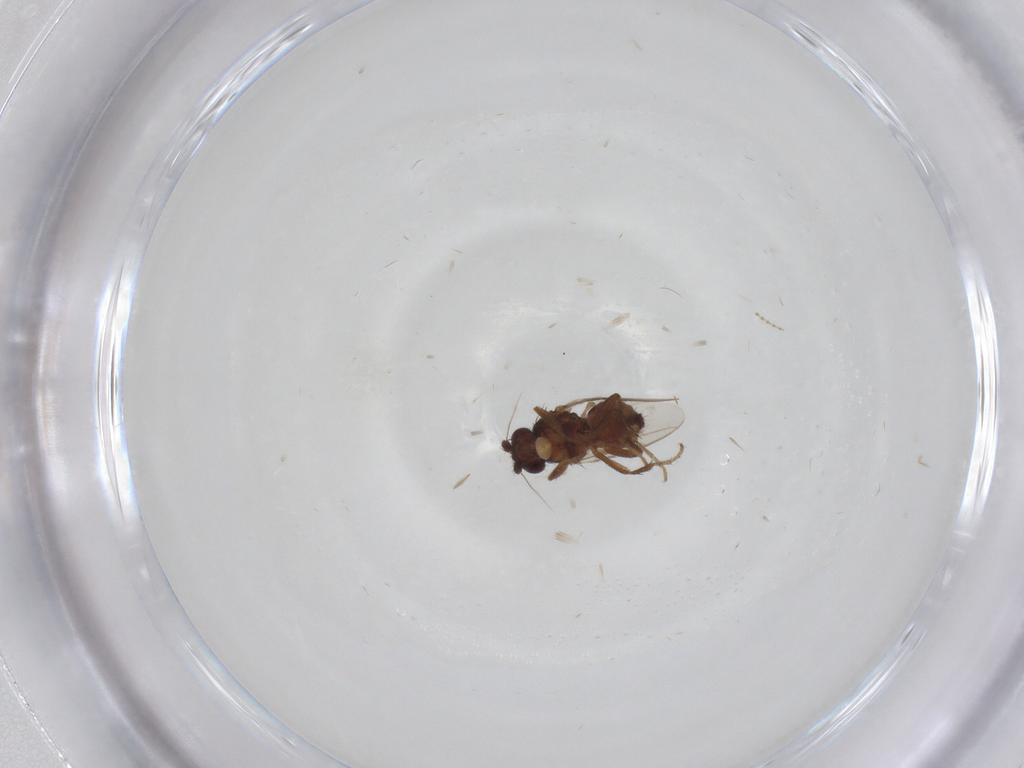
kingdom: Animalia
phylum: Arthropoda
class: Insecta
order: Diptera
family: Sphaeroceridae
